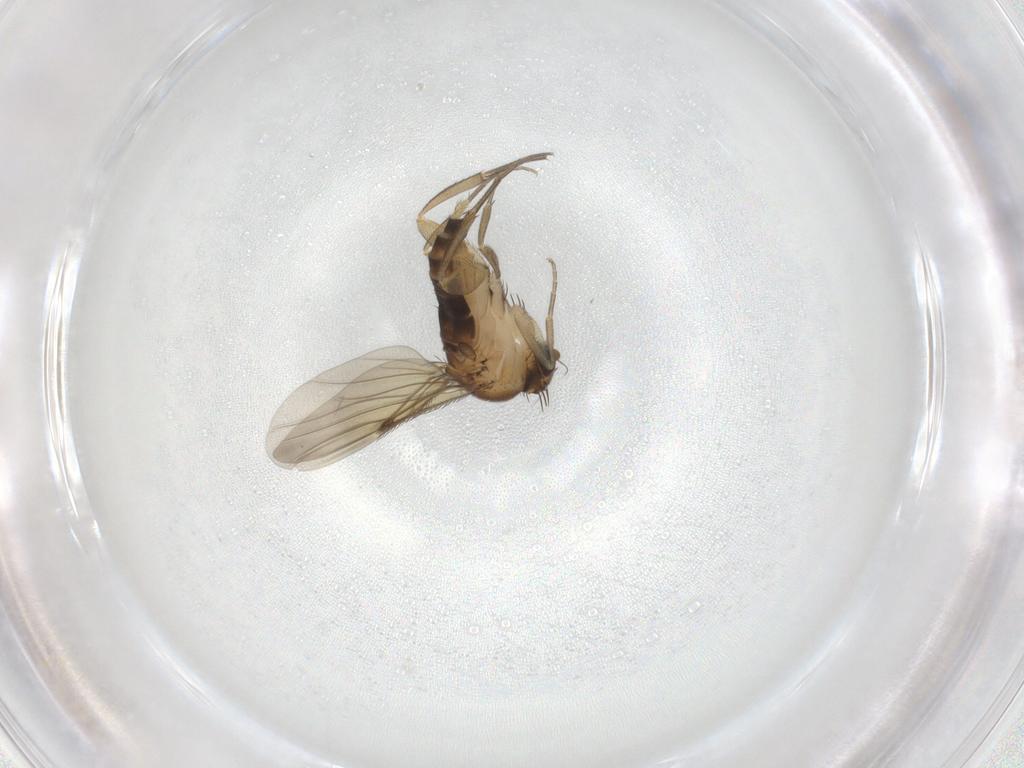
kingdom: Animalia
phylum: Arthropoda
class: Insecta
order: Diptera
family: Phoridae
